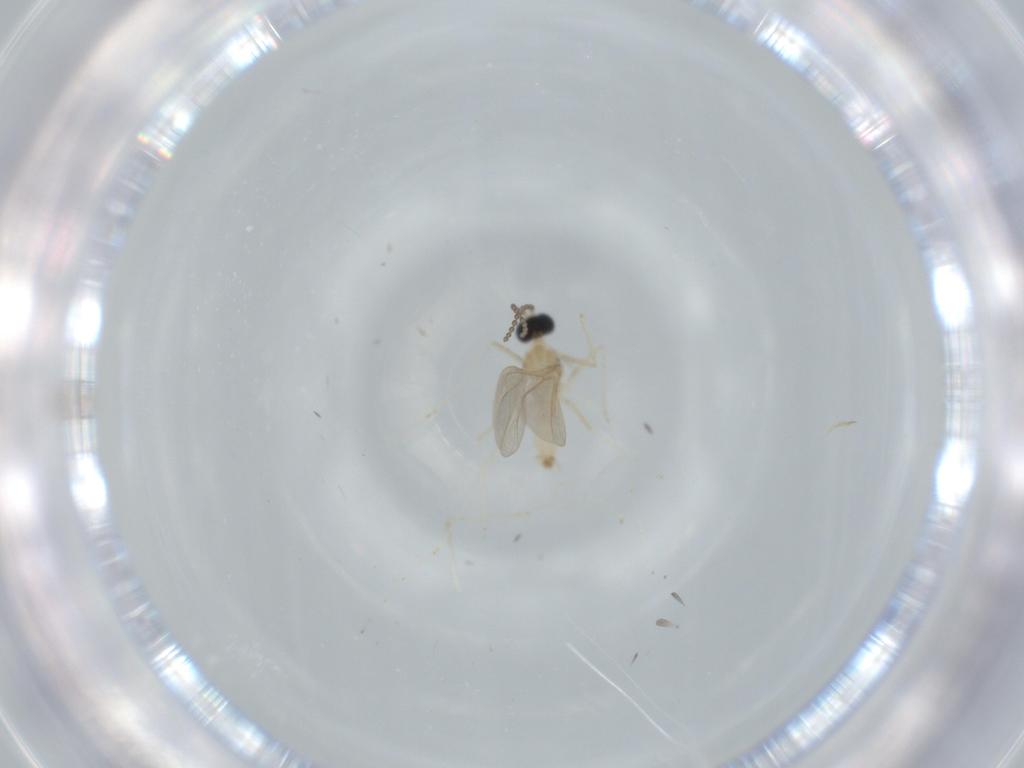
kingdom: Animalia
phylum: Arthropoda
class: Insecta
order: Diptera
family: Cecidomyiidae
